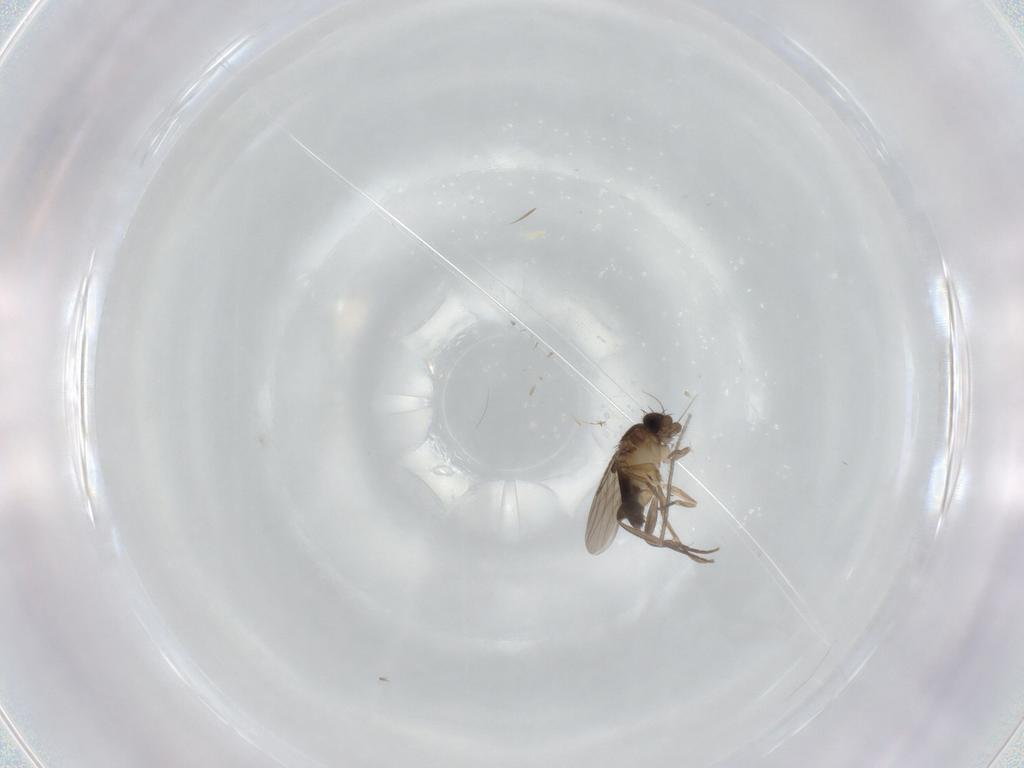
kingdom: Animalia
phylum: Arthropoda
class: Insecta
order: Diptera
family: Phoridae
